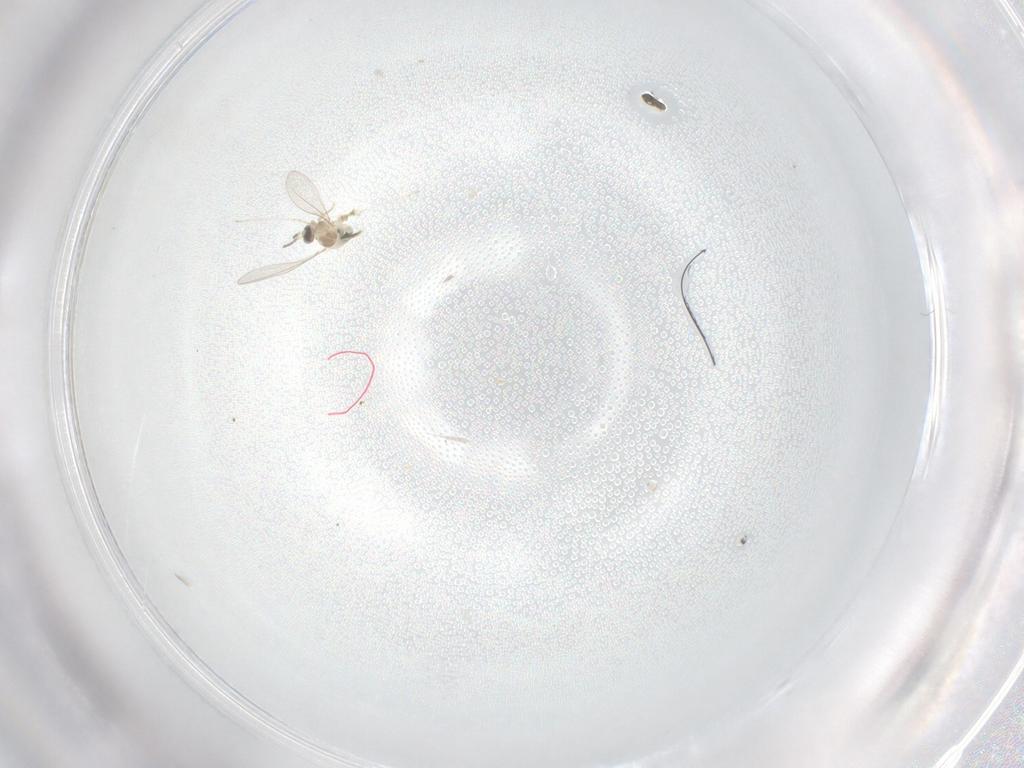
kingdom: Animalia
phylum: Arthropoda
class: Insecta
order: Diptera
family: Cecidomyiidae
